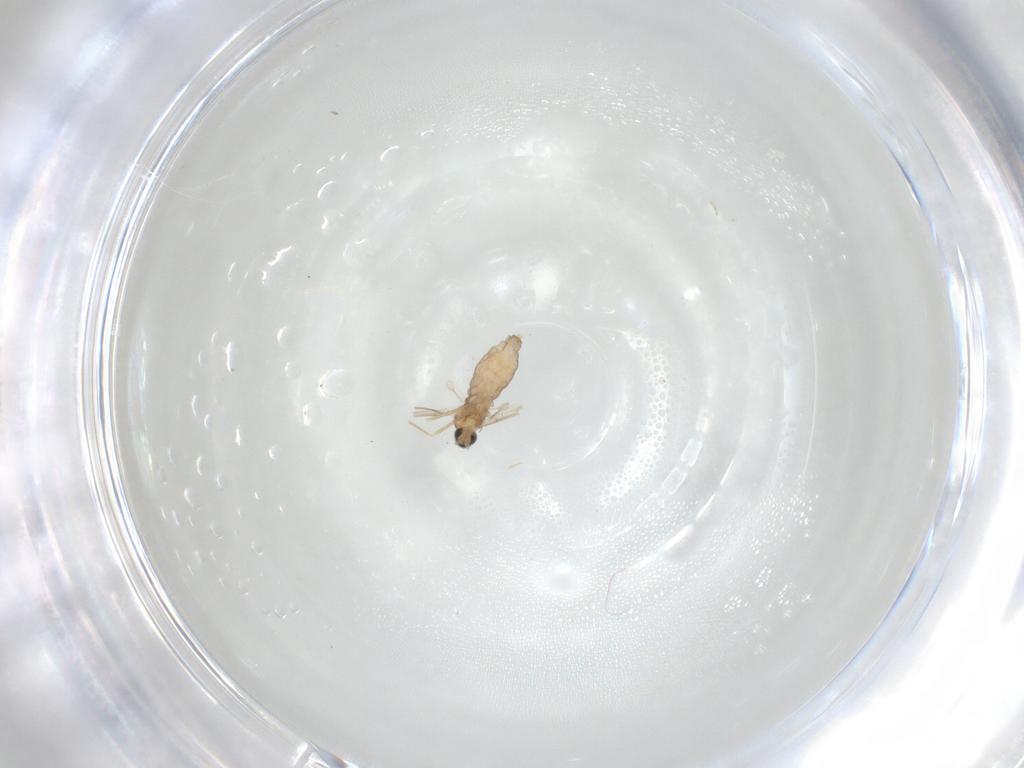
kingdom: Animalia
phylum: Arthropoda
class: Insecta
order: Diptera
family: Cecidomyiidae
